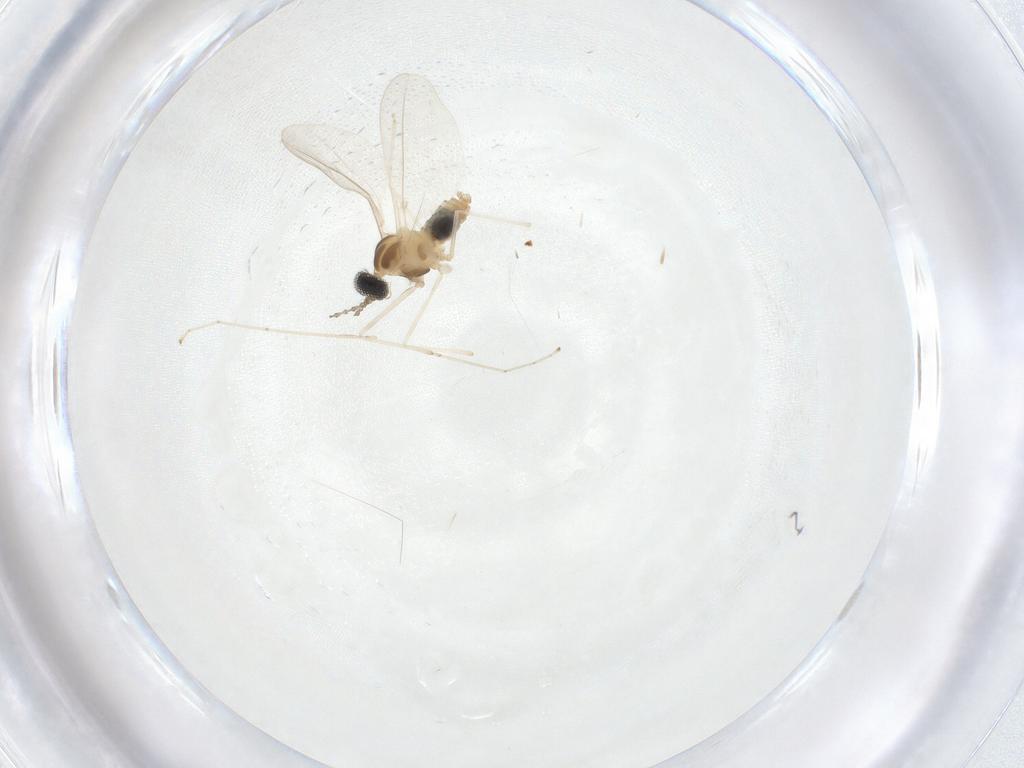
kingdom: Animalia
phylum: Arthropoda
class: Insecta
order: Diptera
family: Cecidomyiidae
